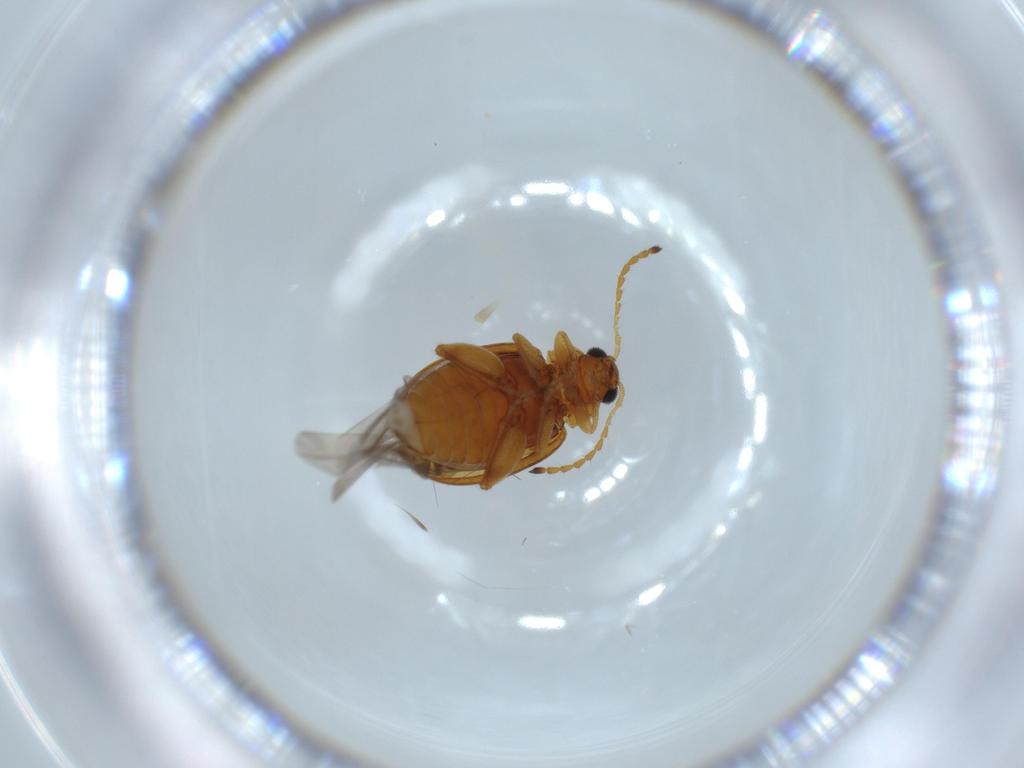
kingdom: Animalia
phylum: Arthropoda
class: Insecta
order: Coleoptera
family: Chrysomelidae
